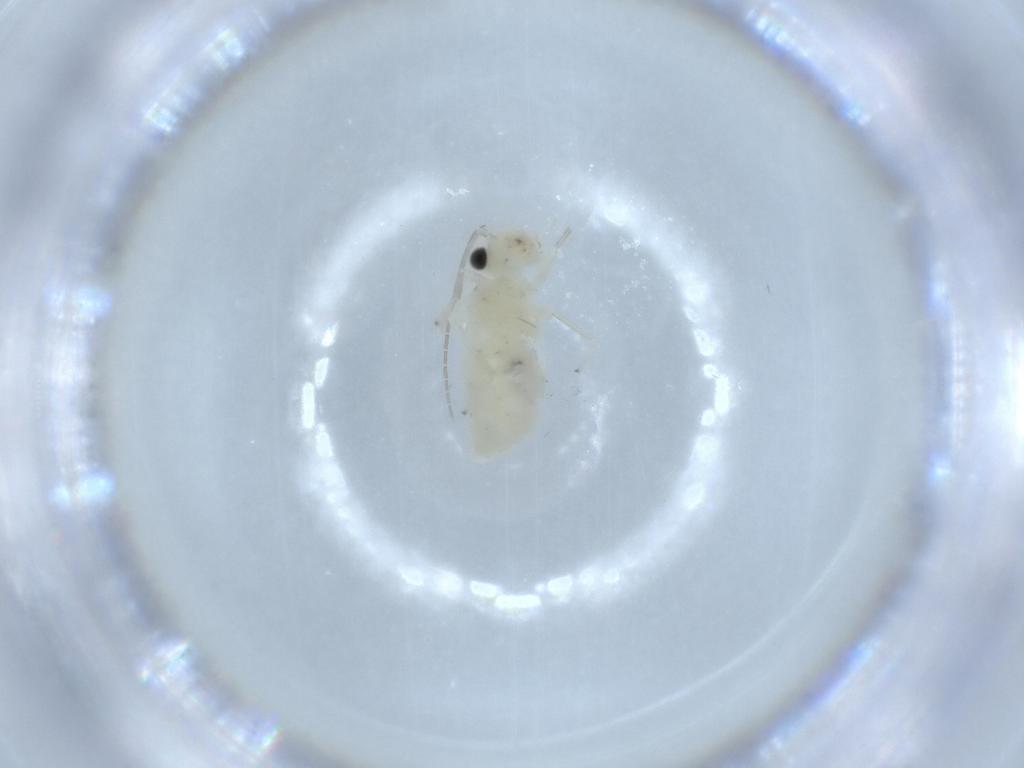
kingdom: Animalia
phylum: Arthropoda
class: Insecta
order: Psocodea
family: Caeciliusidae
